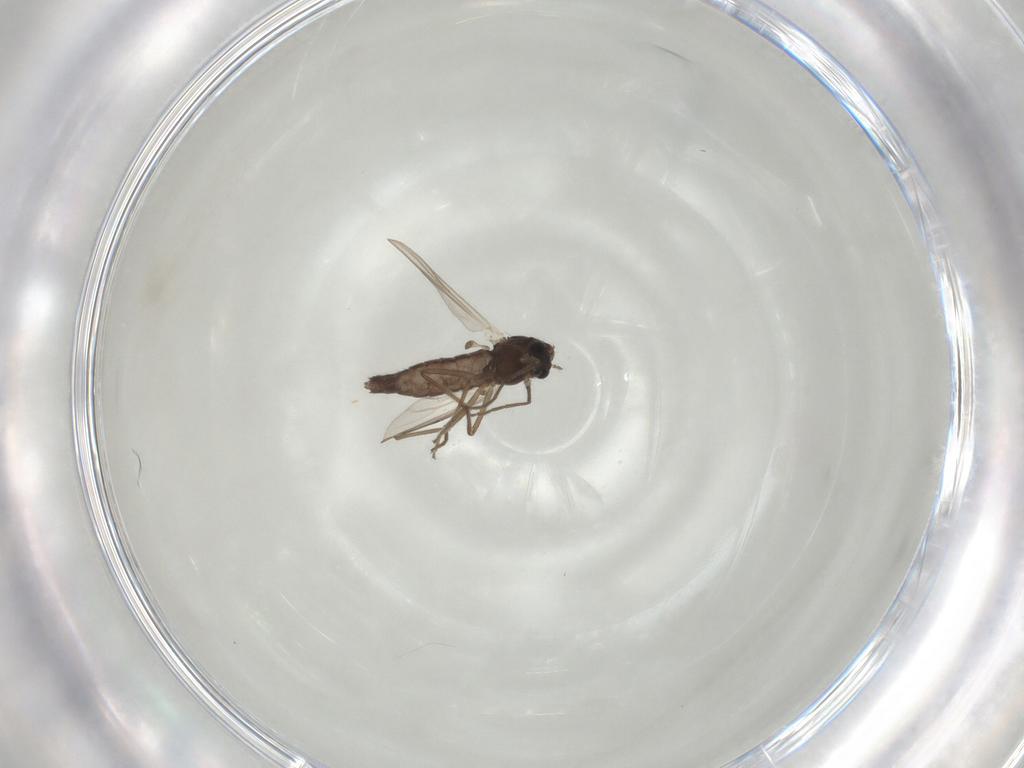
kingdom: Animalia
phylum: Arthropoda
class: Insecta
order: Diptera
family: Chironomidae
